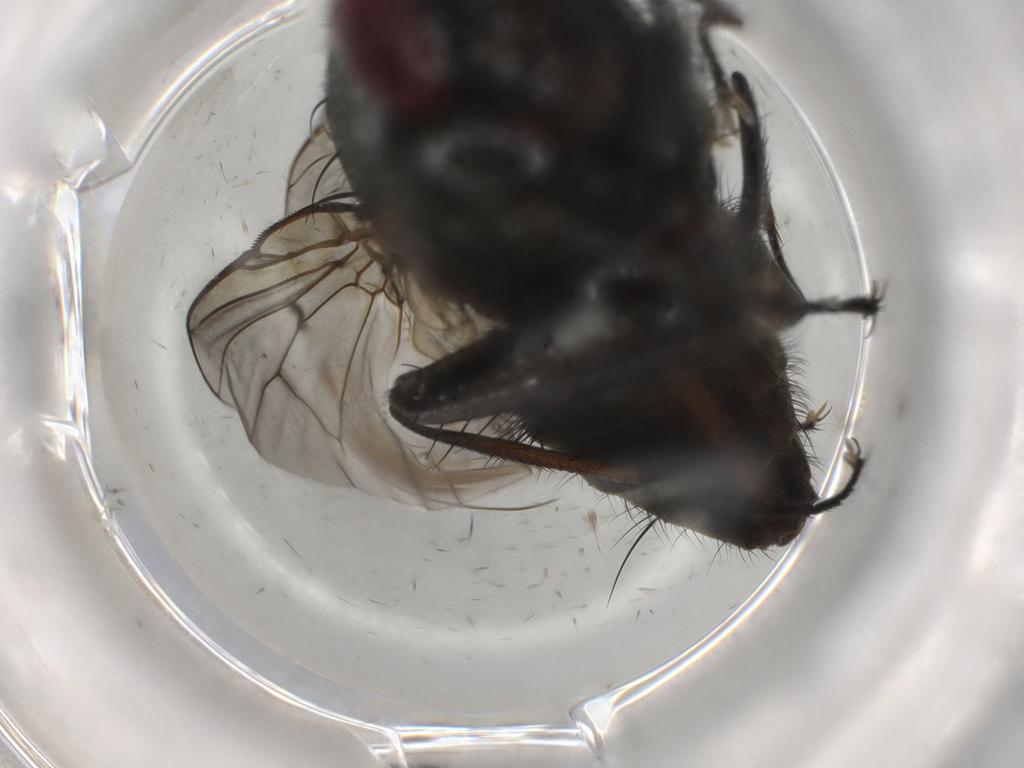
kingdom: Animalia
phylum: Arthropoda
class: Insecta
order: Diptera
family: Muscidae
